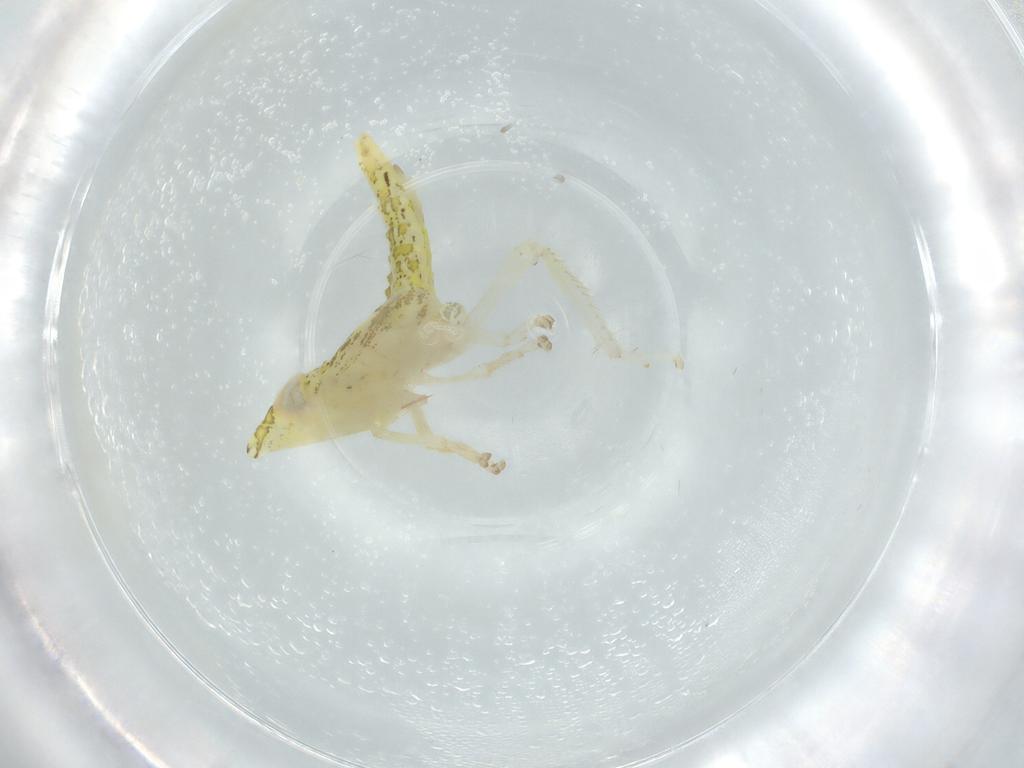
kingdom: Animalia
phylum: Arthropoda
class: Insecta
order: Hemiptera
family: Cicadellidae
